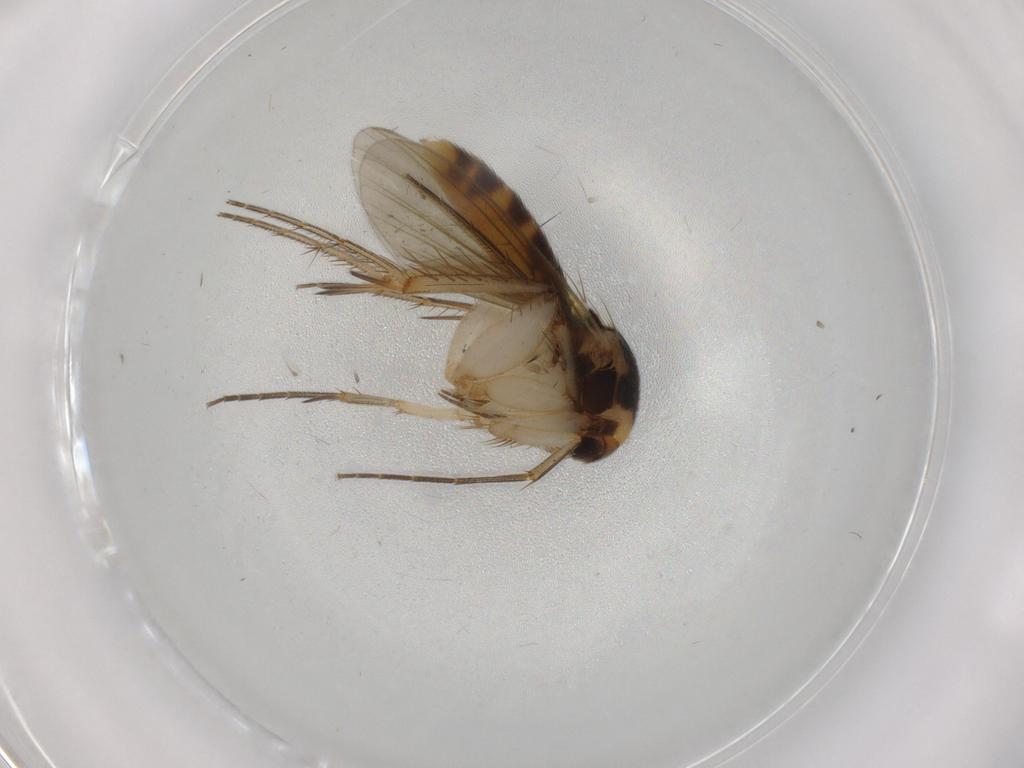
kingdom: Animalia
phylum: Arthropoda
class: Insecta
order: Diptera
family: Mycetophilidae
